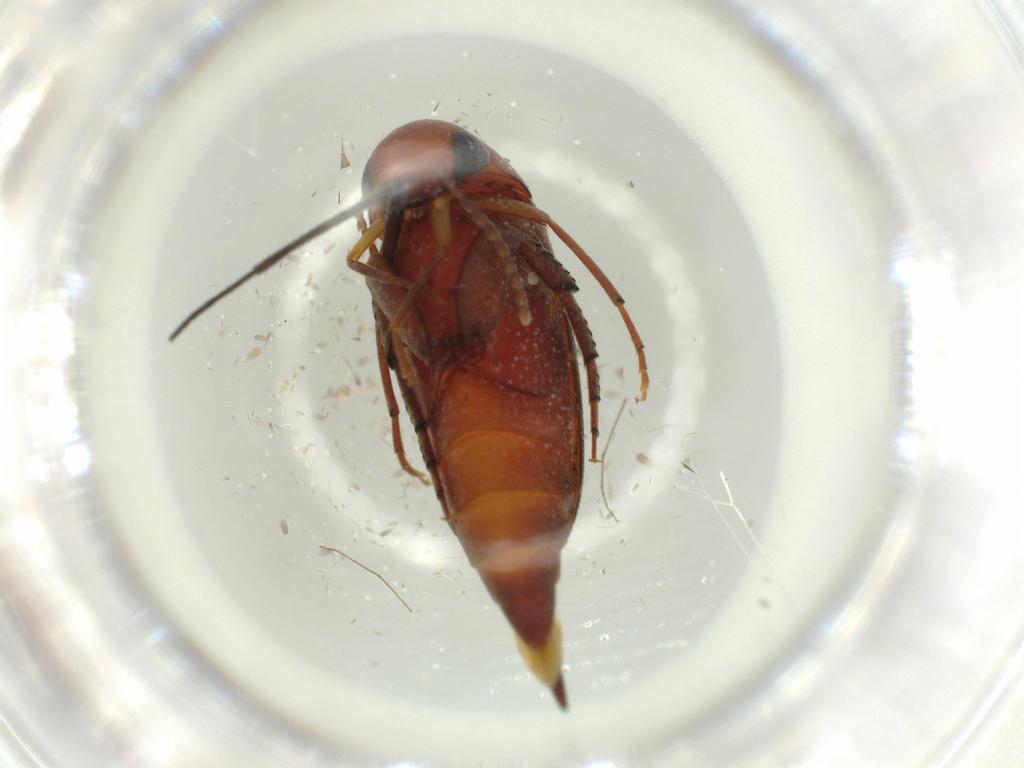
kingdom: Animalia
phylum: Arthropoda
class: Insecta
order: Coleoptera
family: Mordellidae
